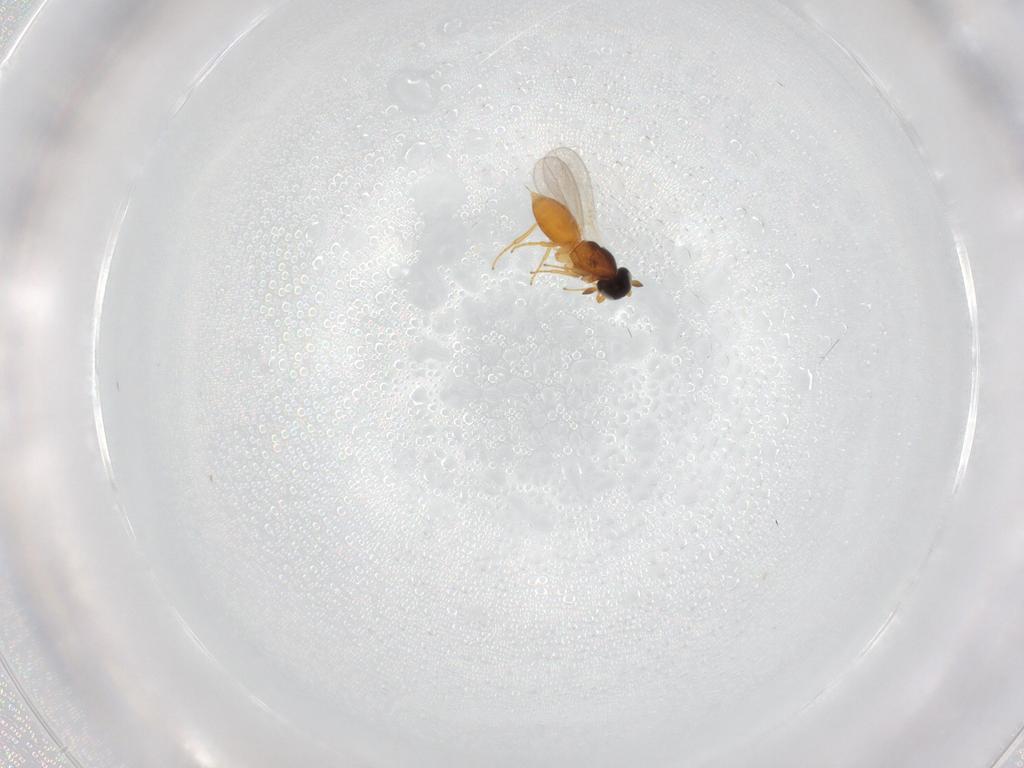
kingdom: Animalia
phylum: Arthropoda
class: Insecta
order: Hymenoptera
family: Platygastridae
